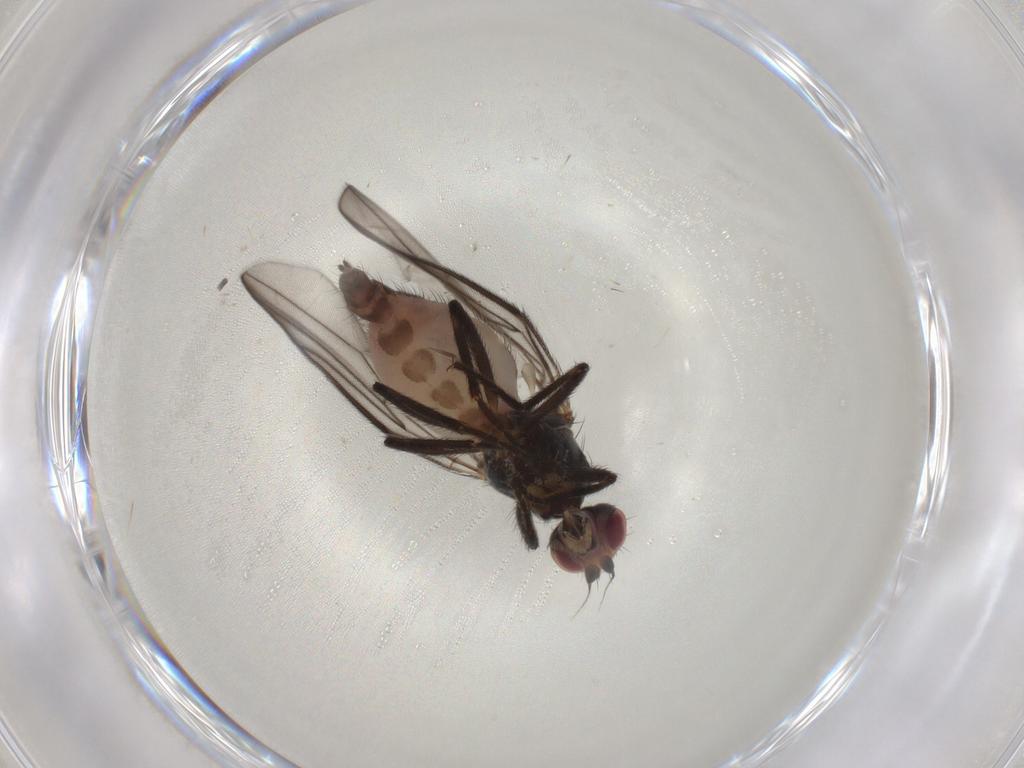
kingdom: Animalia
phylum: Arthropoda
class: Insecta
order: Diptera
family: Chloropidae
